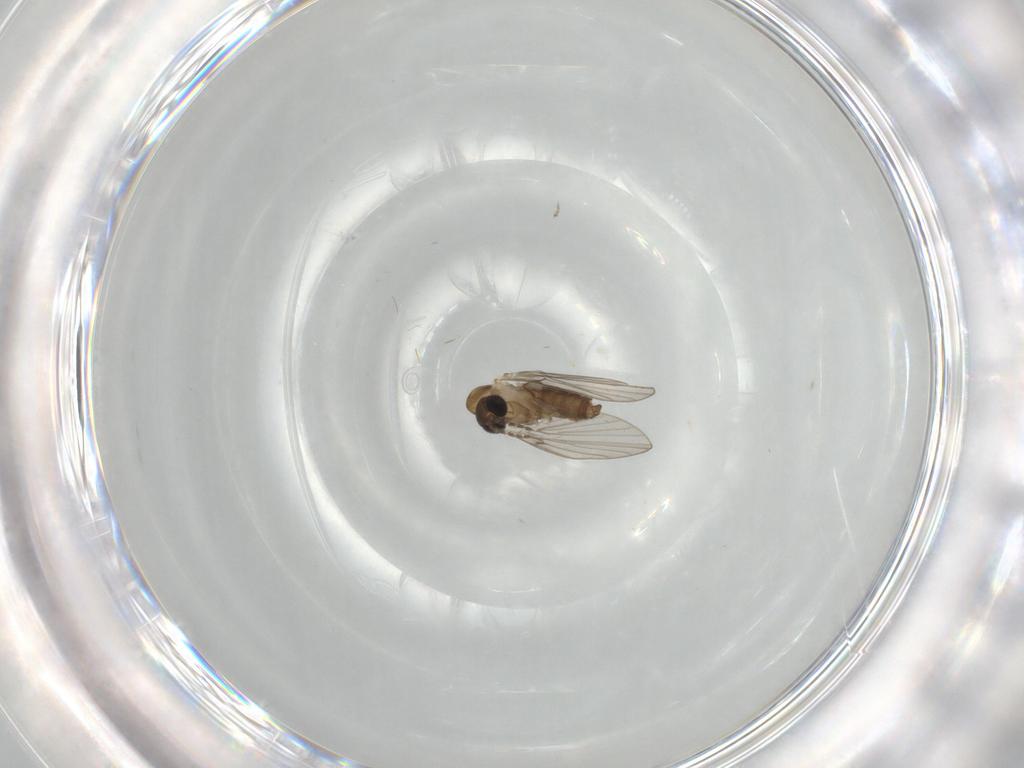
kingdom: Animalia
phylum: Arthropoda
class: Insecta
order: Diptera
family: Chironomidae
